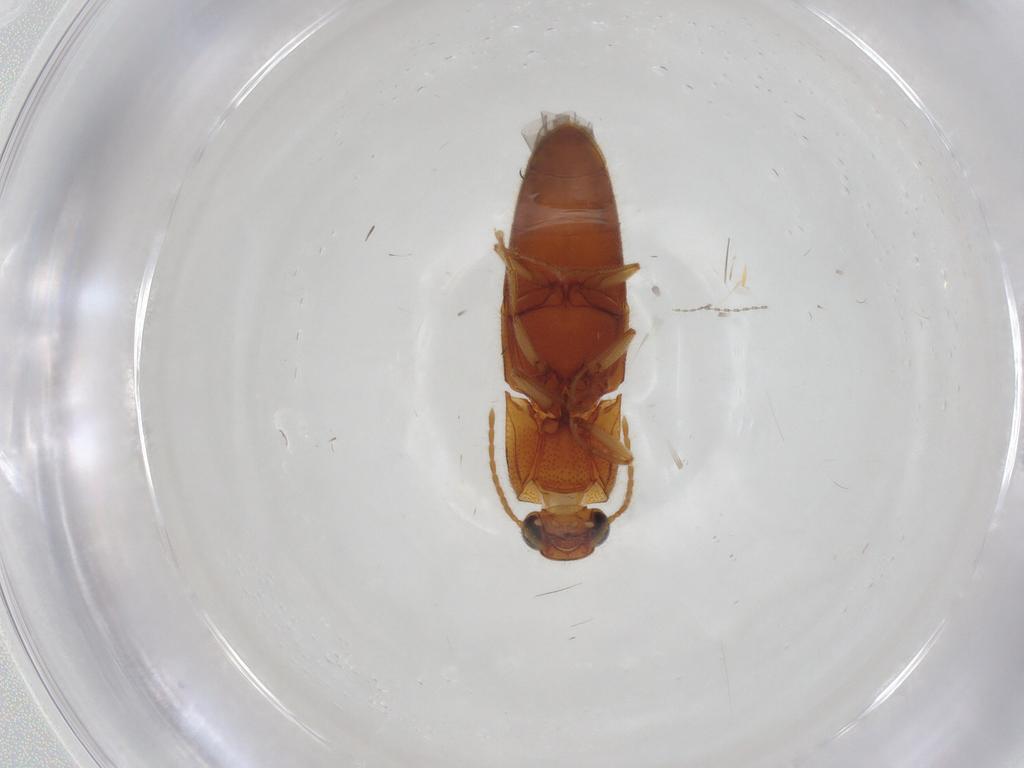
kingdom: Animalia
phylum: Arthropoda
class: Insecta
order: Coleoptera
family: Elateridae
